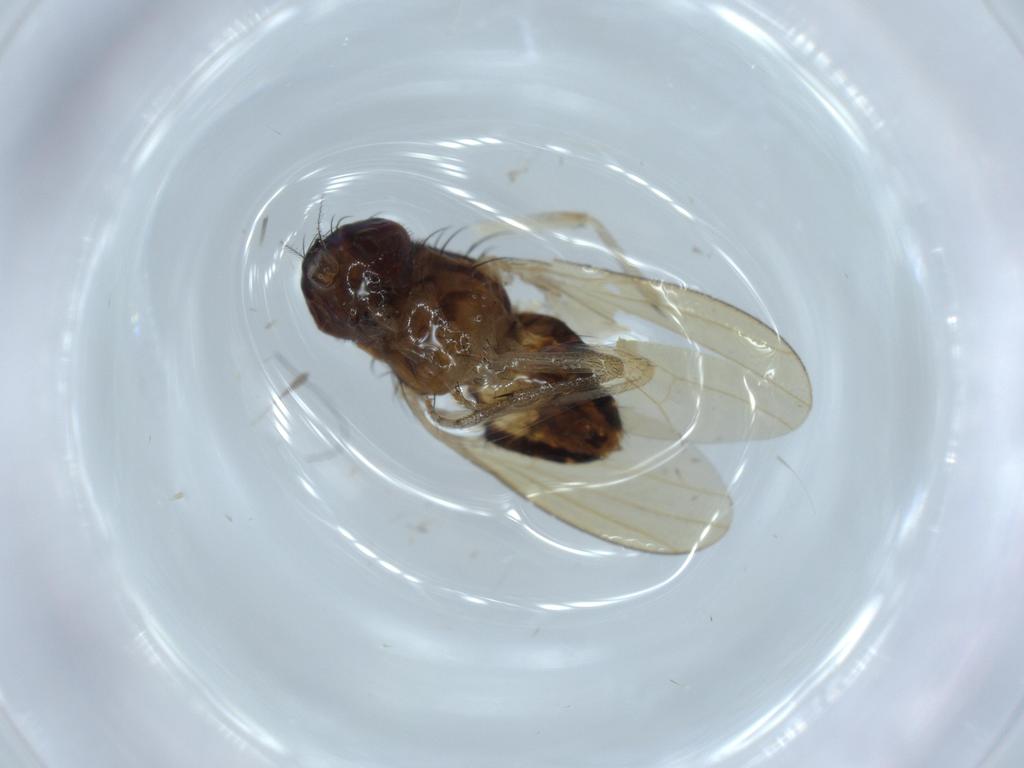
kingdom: Animalia
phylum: Arthropoda
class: Insecta
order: Diptera
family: Lauxaniidae
